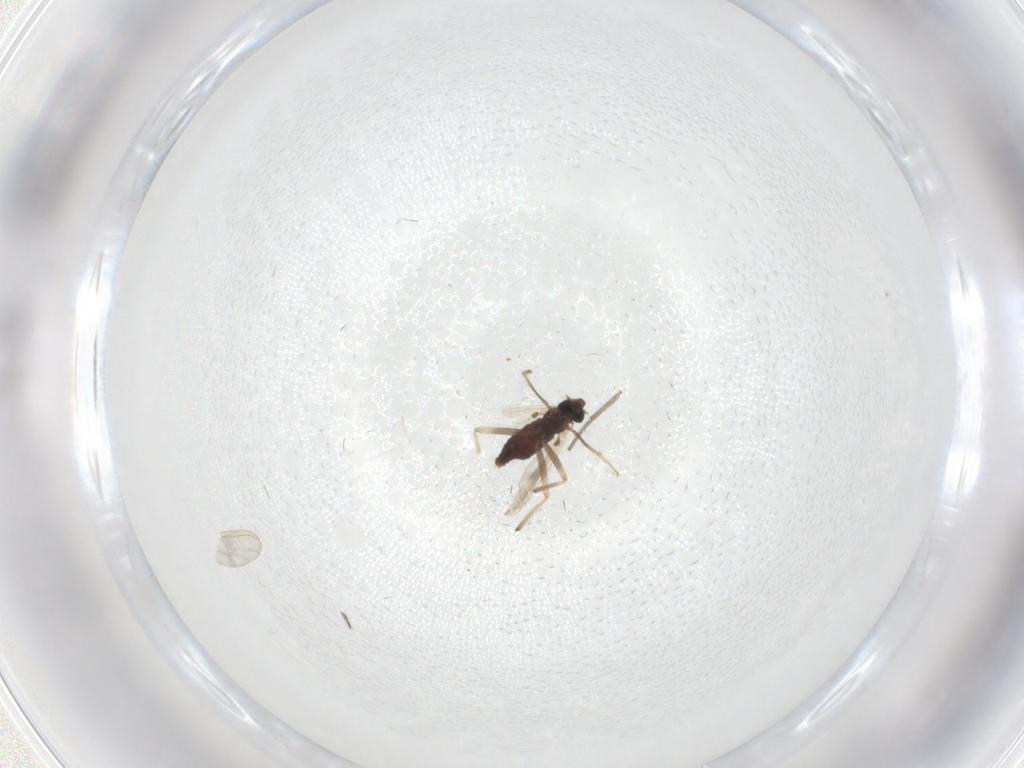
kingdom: Animalia
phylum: Arthropoda
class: Insecta
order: Diptera
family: Chironomidae
